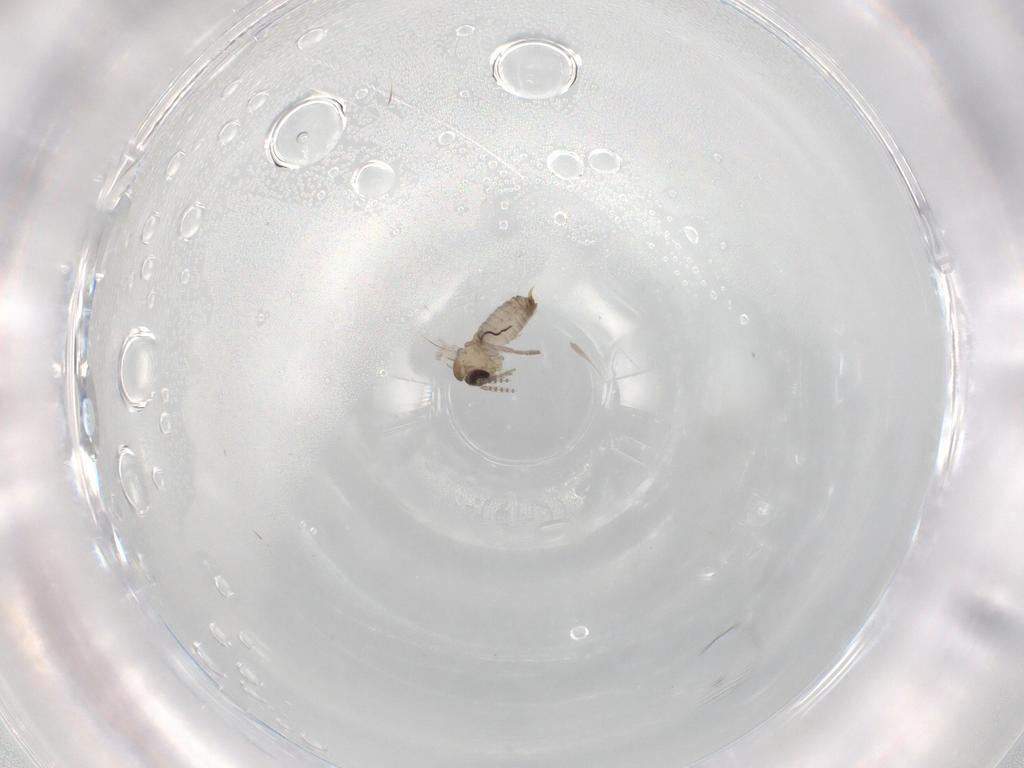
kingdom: Animalia
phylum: Arthropoda
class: Insecta
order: Diptera
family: Psychodidae
